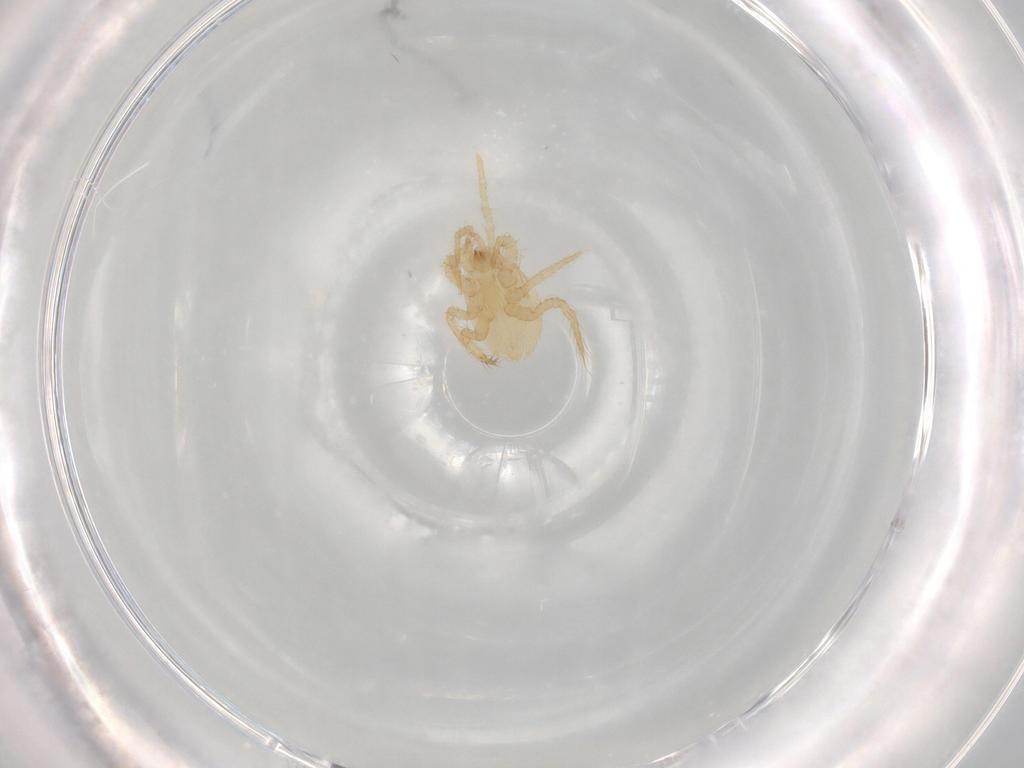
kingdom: Animalia
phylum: Arthropoda
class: Arachnida
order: Mesostigmata
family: Parasitidae
